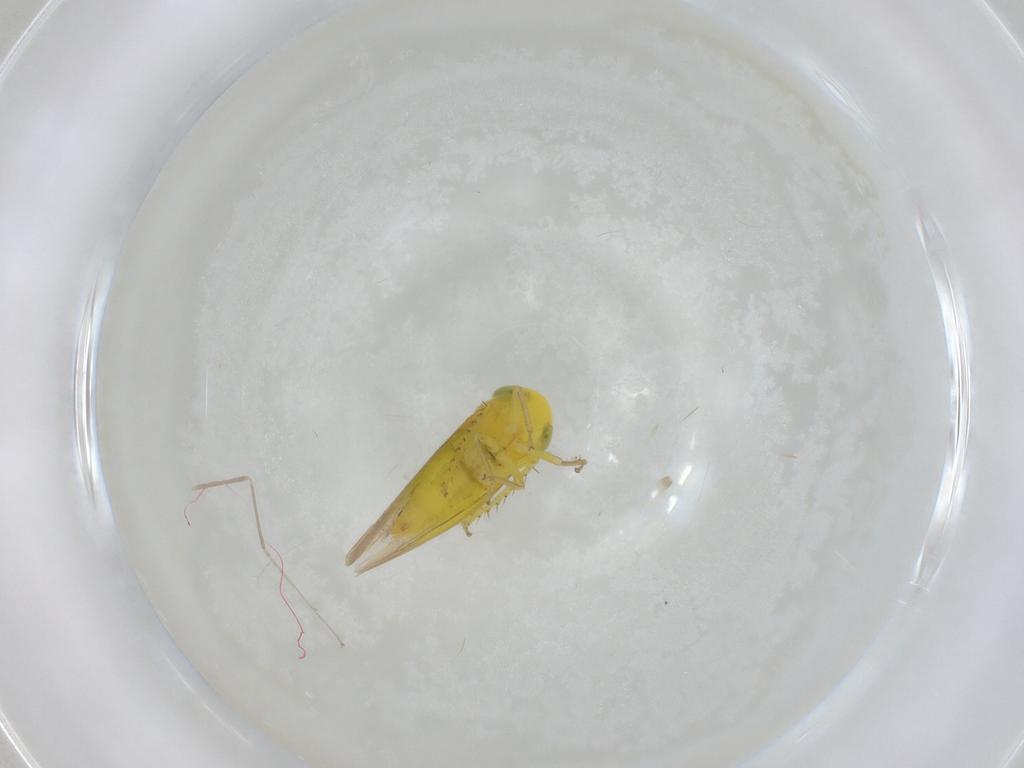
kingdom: Animalia
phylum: Arthropoda
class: Insecta
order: Hemiptera
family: Cicadellidae
